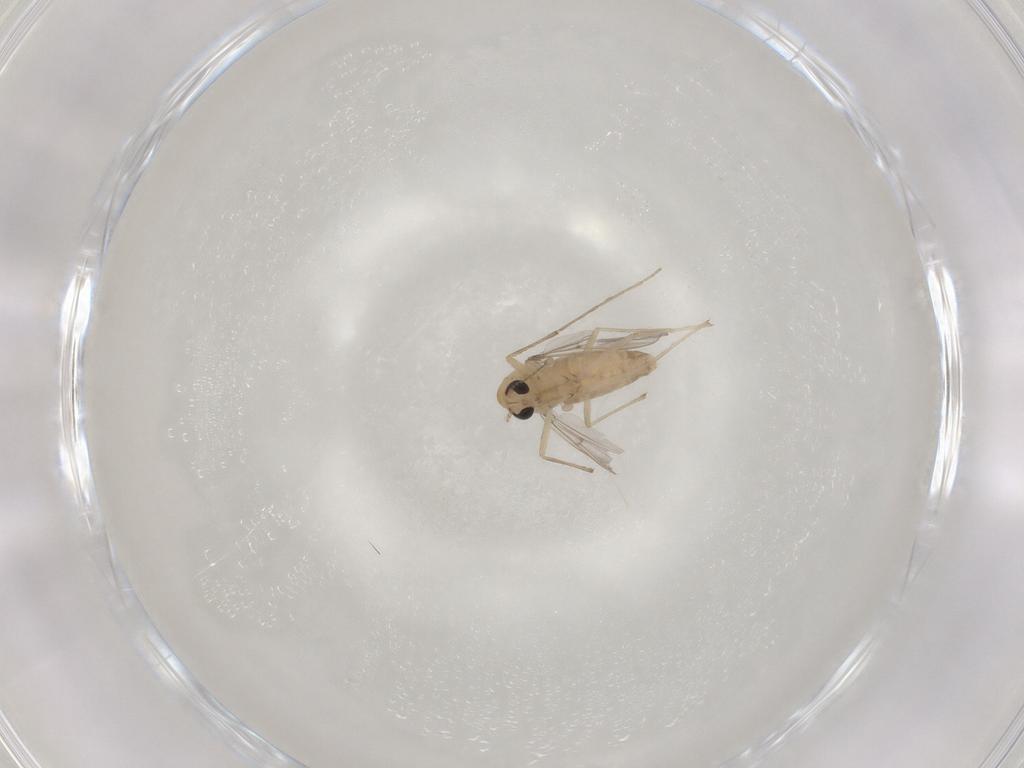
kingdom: Animalia
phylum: Arthropoda
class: Insecta
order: Diptera
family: Chironomidae
